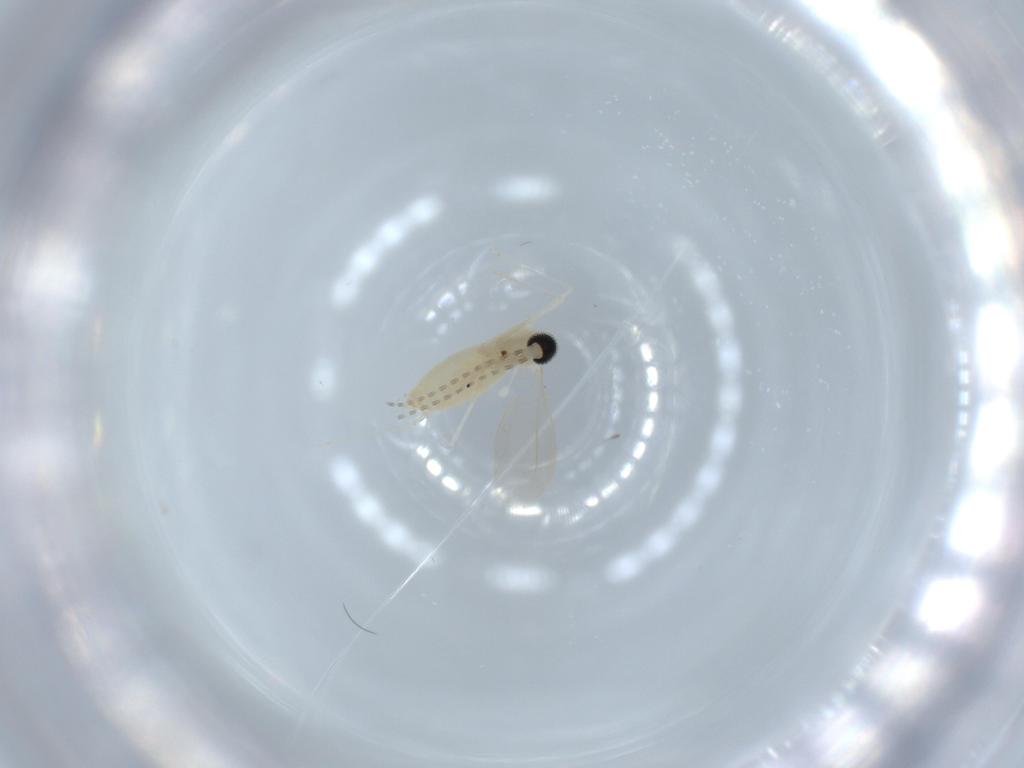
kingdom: Animalia
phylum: Arthropoda
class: Insecta
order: Diptera
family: Cecidomyiidae
